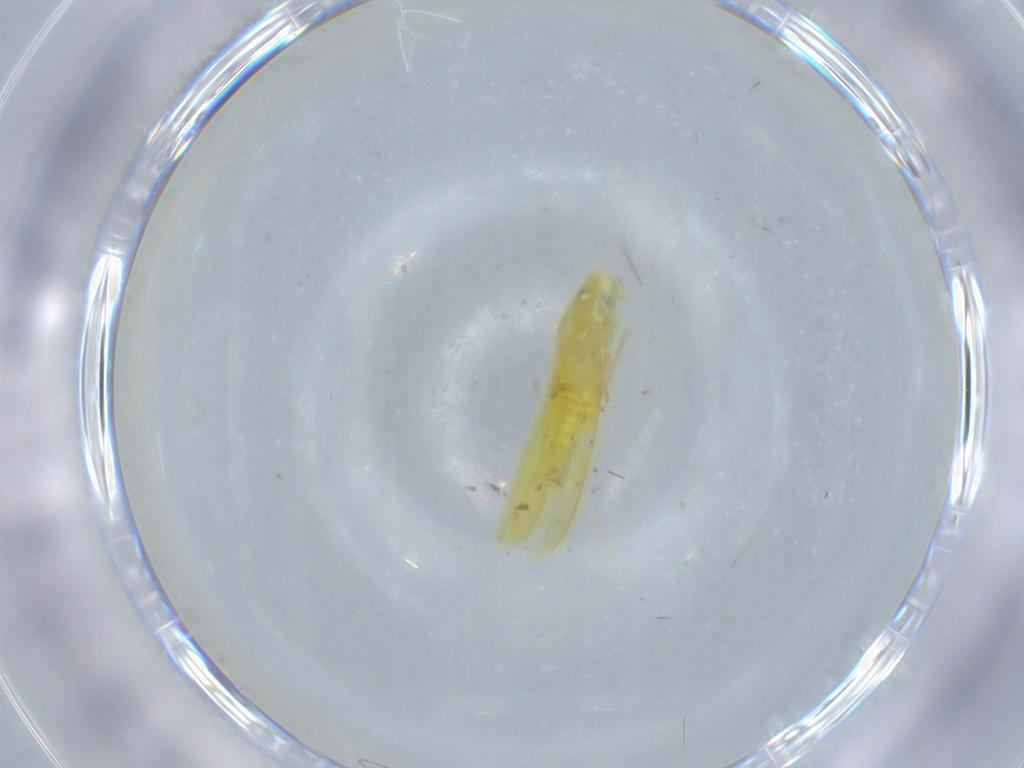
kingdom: Animalia
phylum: Arthropoda
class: Insecta
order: Hemiptera
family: Cicadellidae
